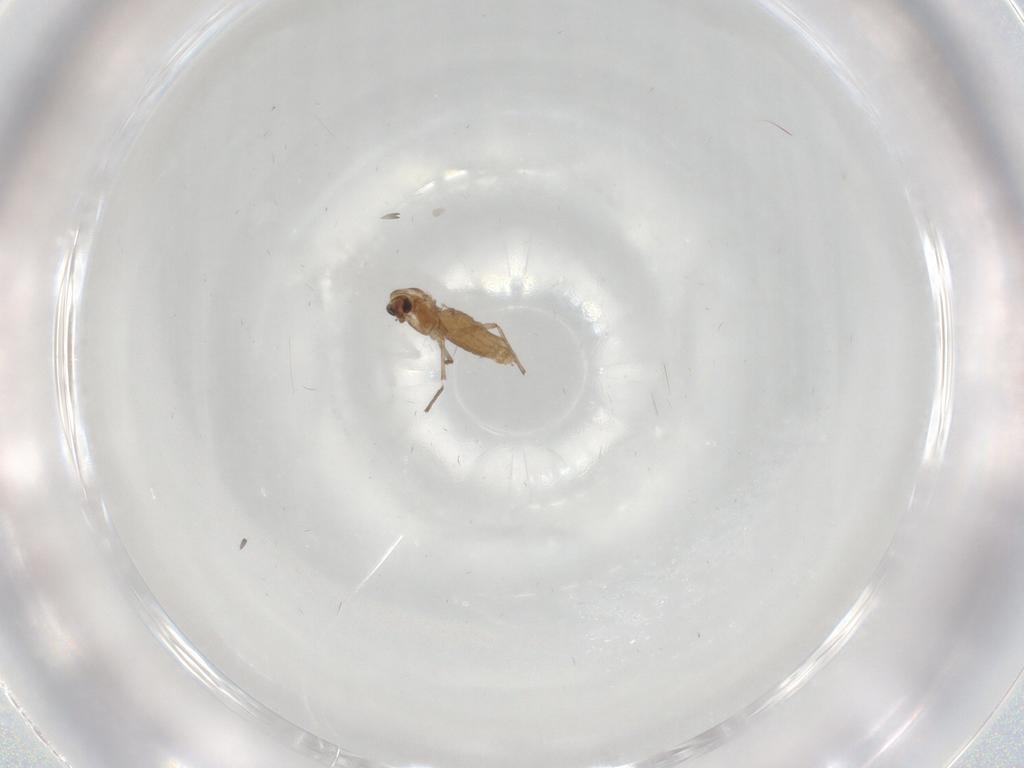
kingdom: Animalia
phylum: Arthropoda
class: Insecta
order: Diptera
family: Chironomidae
